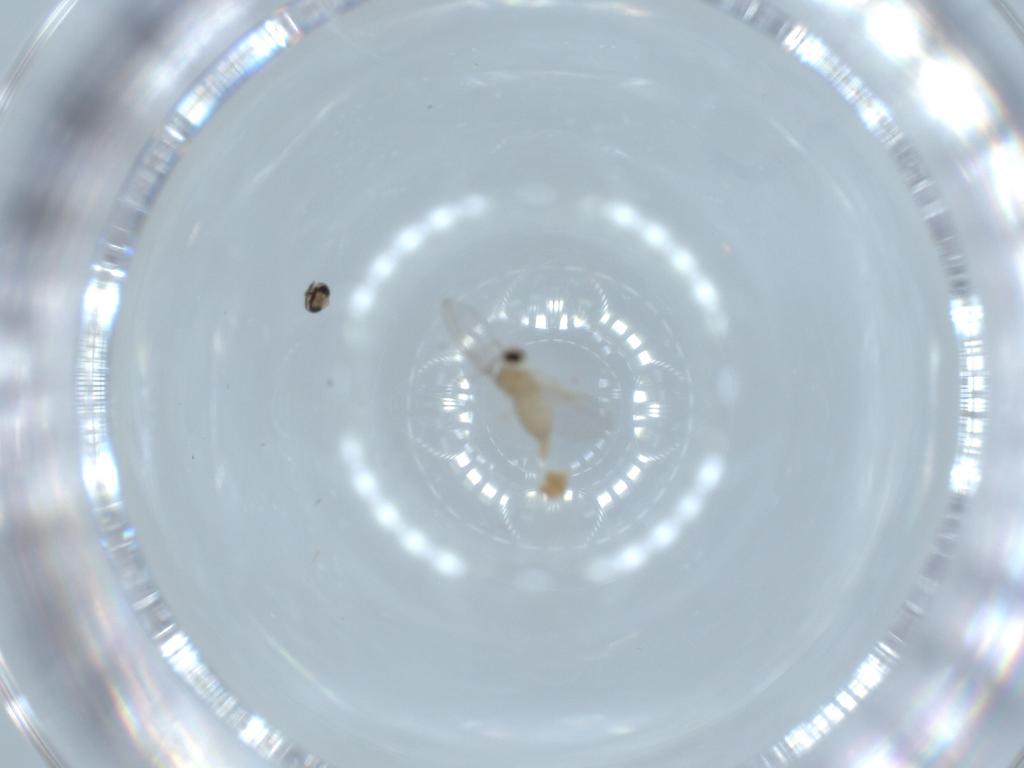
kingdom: Animalia
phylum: Arthropoda
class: Insecta
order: Diptera
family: Cecidomyiidae
